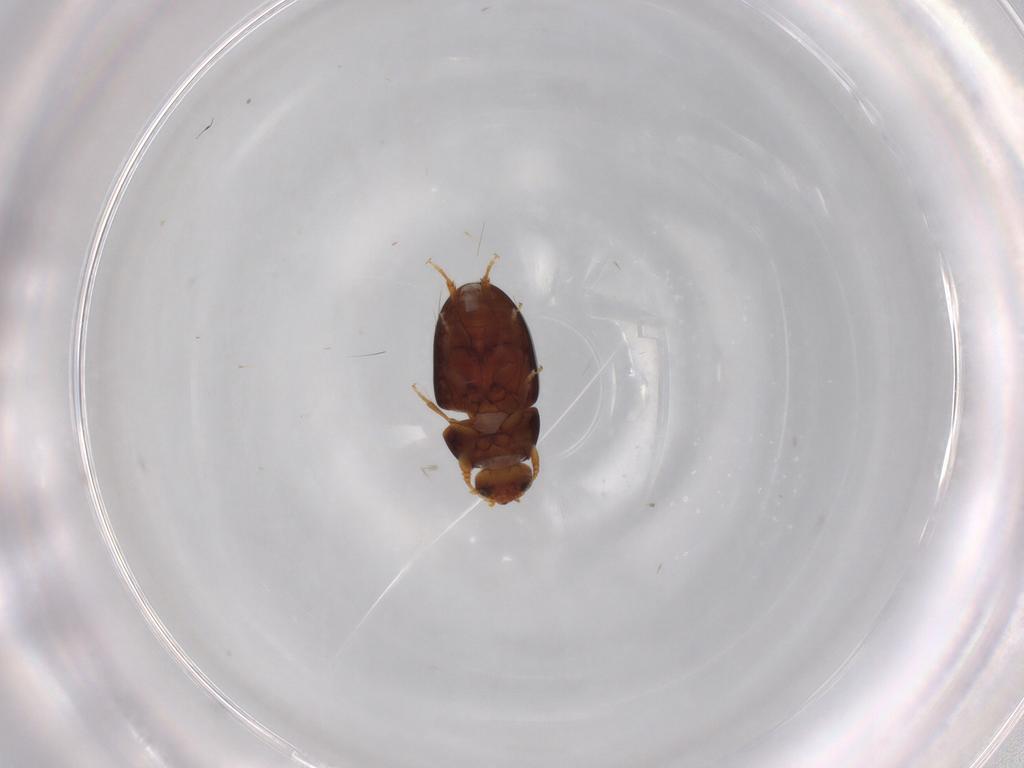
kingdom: Animalia
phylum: Arthropoda
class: Insecta
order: Coleoptera
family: Phalacridae
